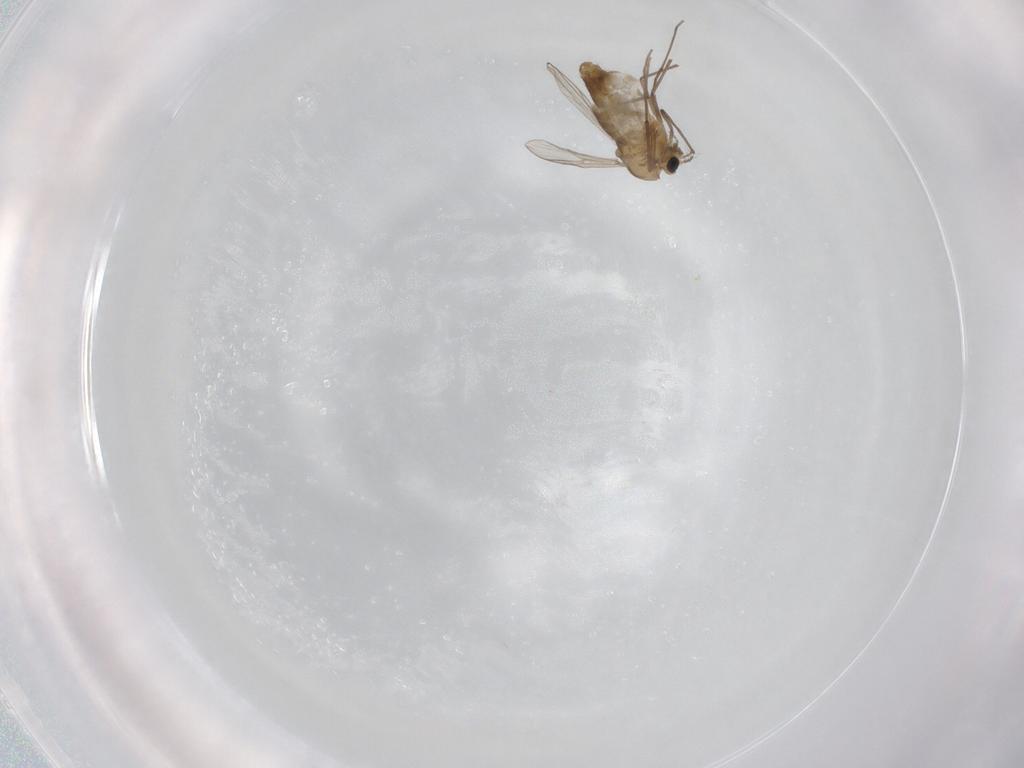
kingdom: Animalia
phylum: Arthropoda
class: Insecta
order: Diptera
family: Chironomidae
